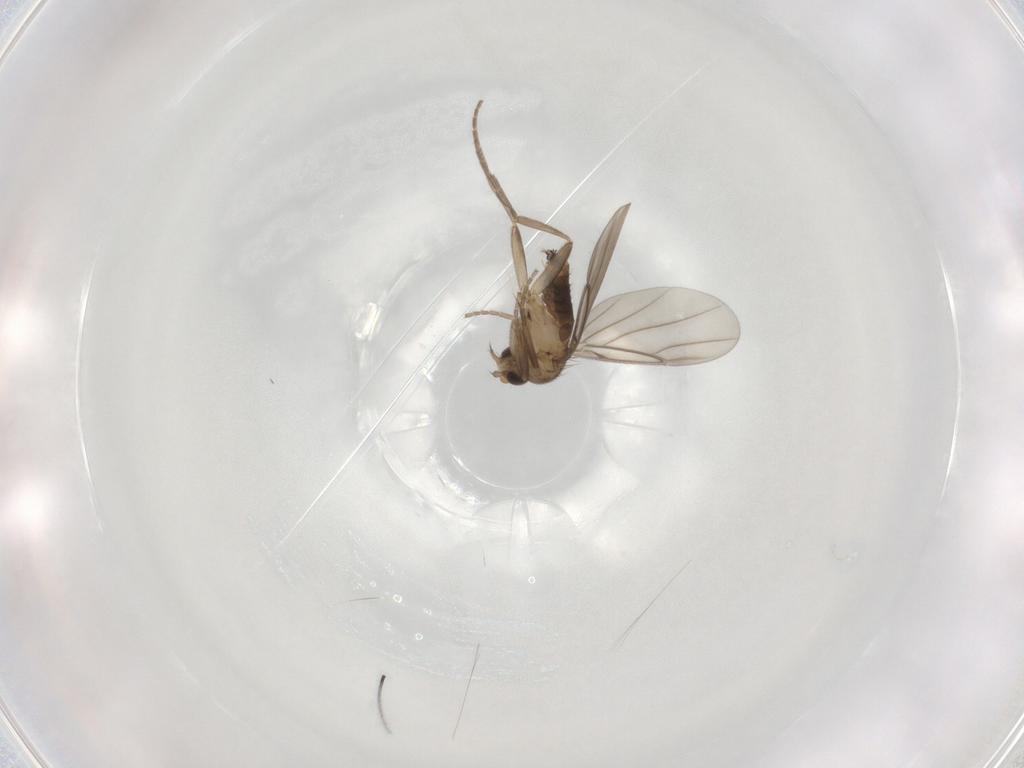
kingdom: Animalia
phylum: Arthropoda
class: Insecta
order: Diptera
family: Phoridae
